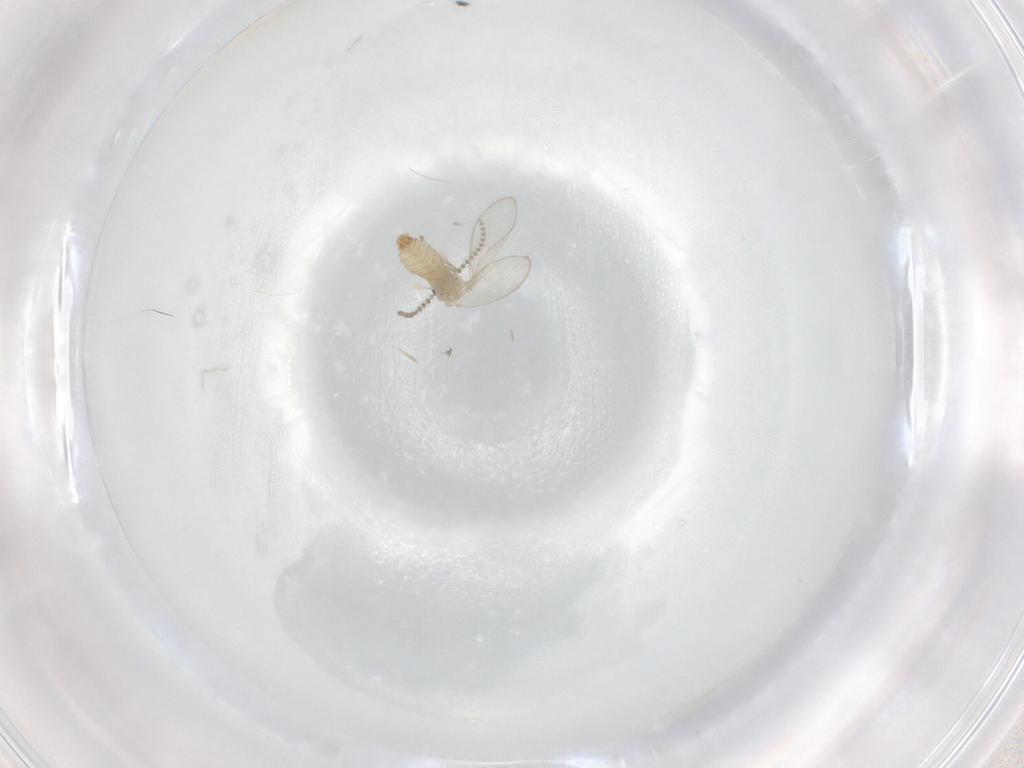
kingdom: Animalia
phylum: Arthropoda
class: Insecta
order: Diptera
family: Psychodidae
